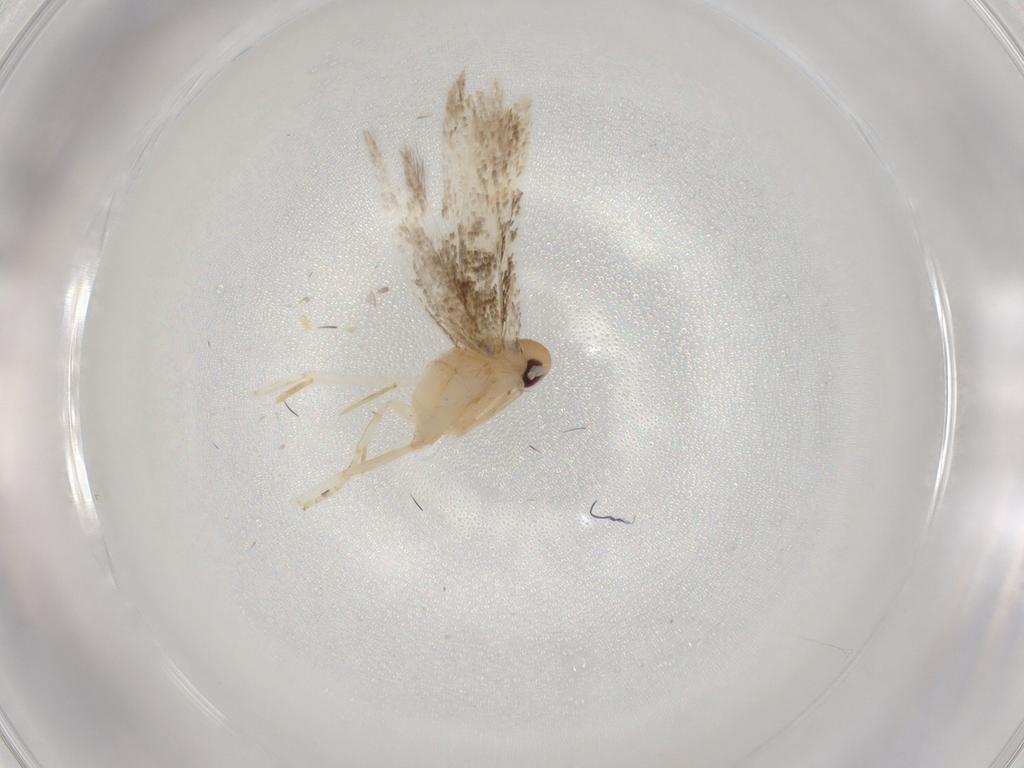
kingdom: Animalia
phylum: Arthropoda
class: Insecta
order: Lepidoptera
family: Momphidae
